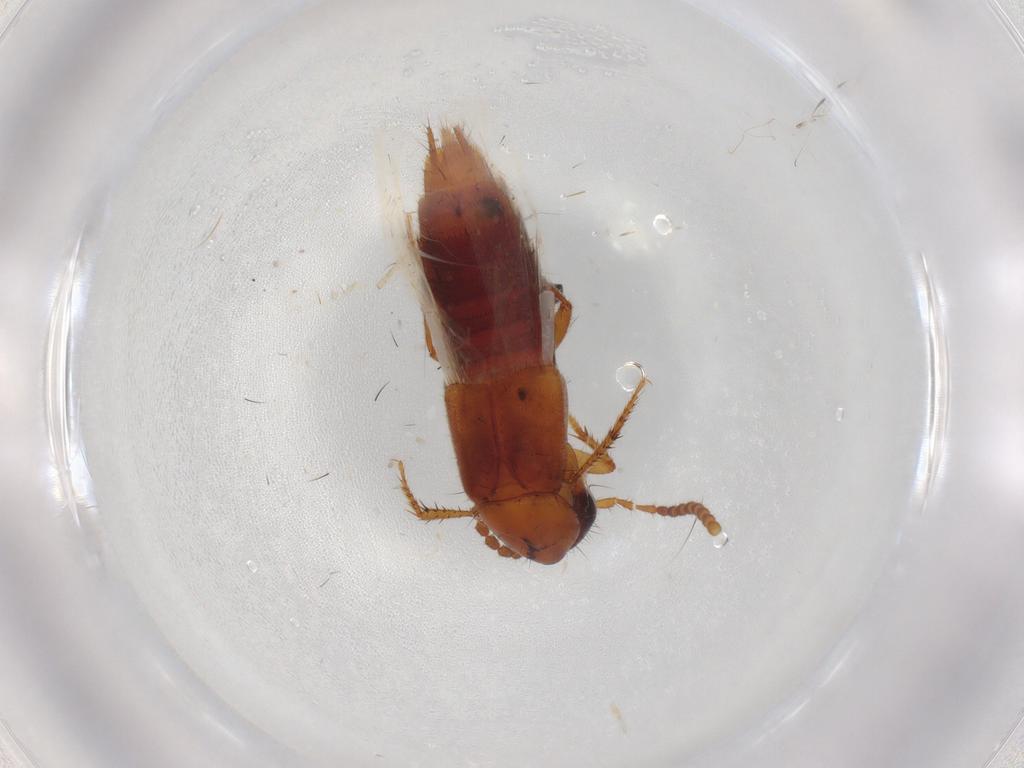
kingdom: Animalia
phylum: Arthropoda
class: Insecta
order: Coleoptera
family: Phalacridae
